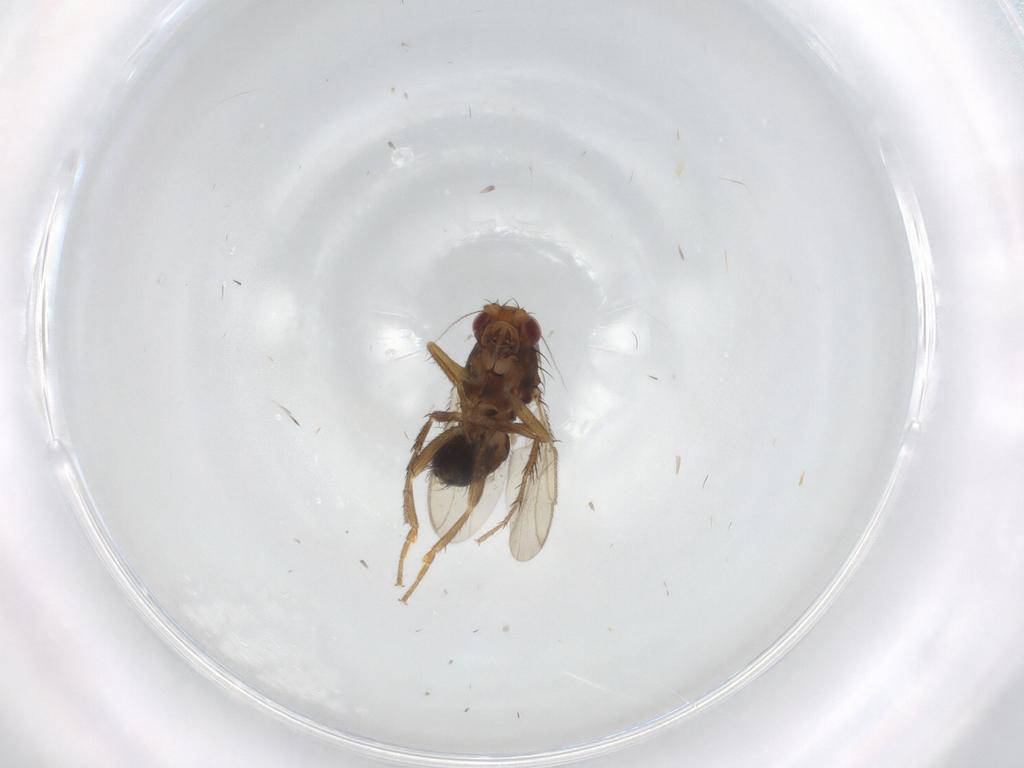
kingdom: Animalia
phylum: Arthropoda
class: Insecta
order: Diptera
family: Sphaeroceridae
